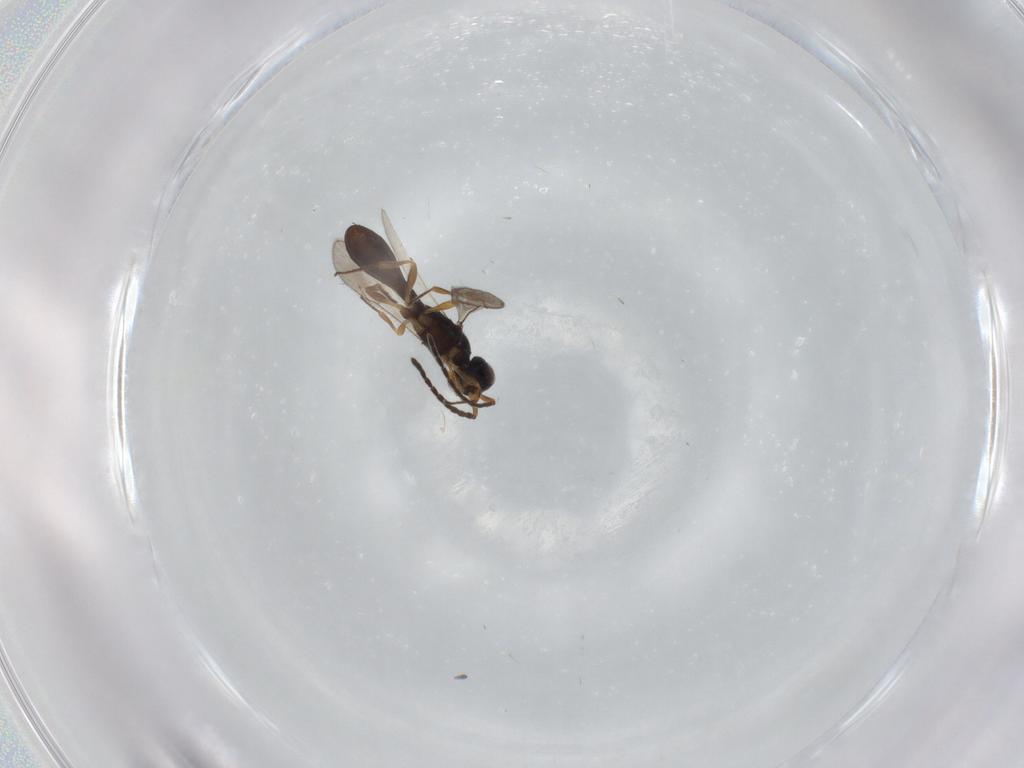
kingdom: Animalia
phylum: Arthropoda
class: Insecta
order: Hymenoptera
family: Scelionidae
